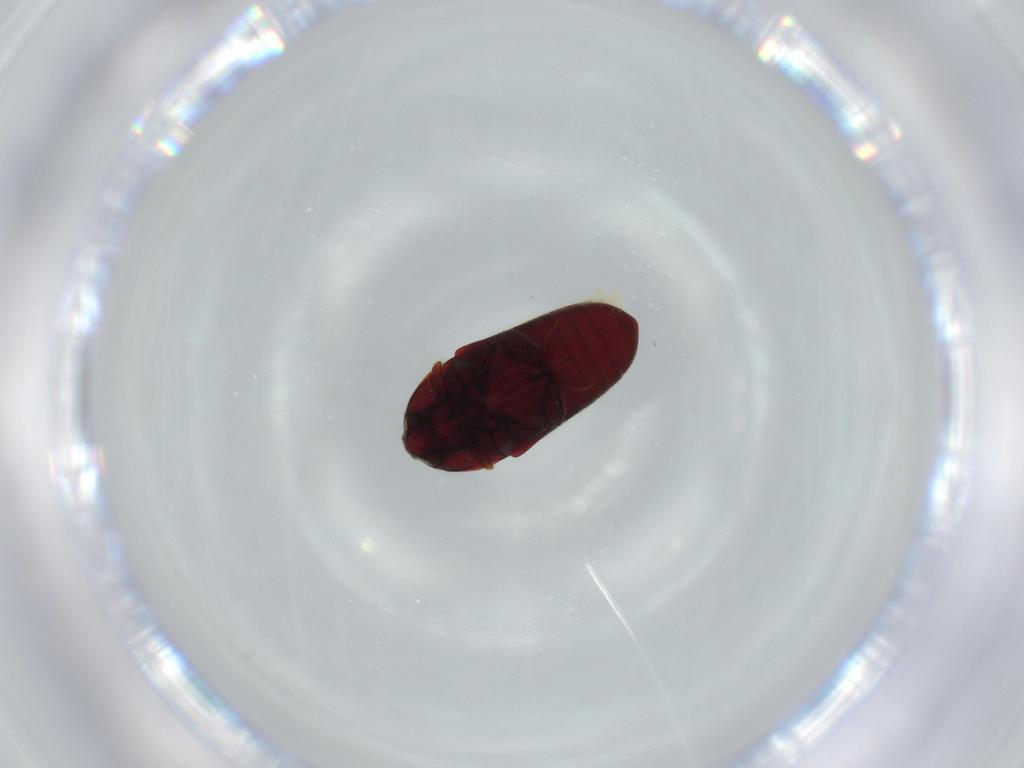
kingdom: Animalia
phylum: Arthropoda
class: Insecta
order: Coleoptera
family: Throscidae
